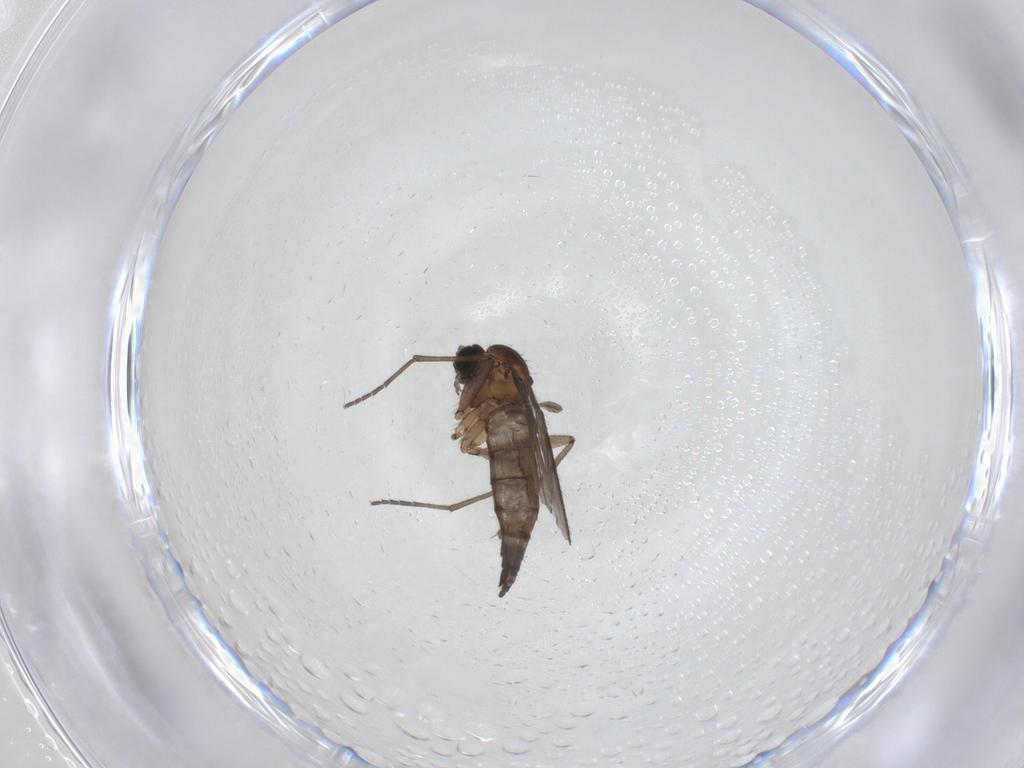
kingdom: Animalia
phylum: Arthropoda
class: Insecta
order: Diptera
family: Sciaridae
